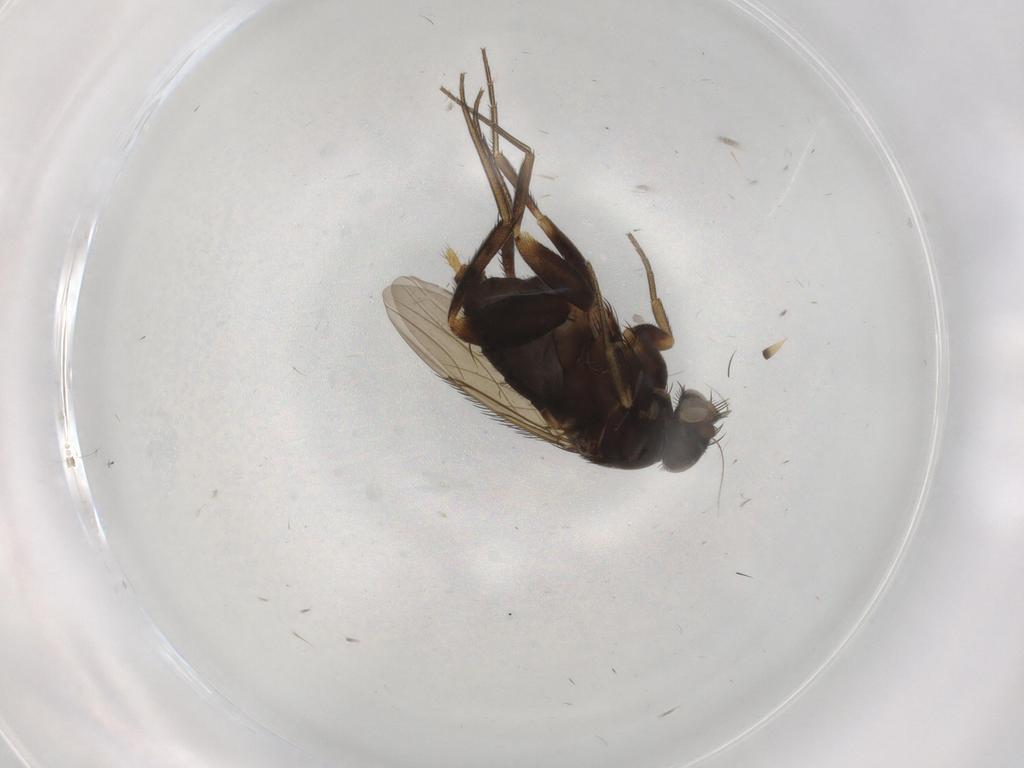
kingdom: Animalia
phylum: Arthropoda
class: Insecta
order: Diptera
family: Phoridae
